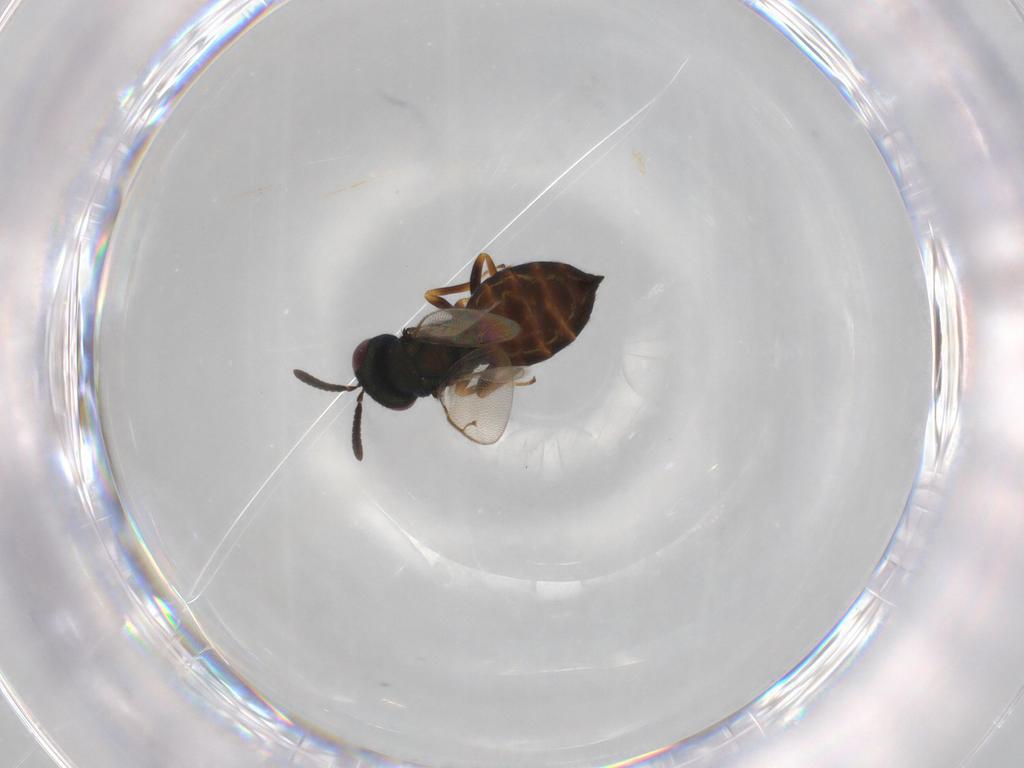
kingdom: Animalia
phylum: Arthropoda
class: Insecta
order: Hymenoptera
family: Pteromalidae
